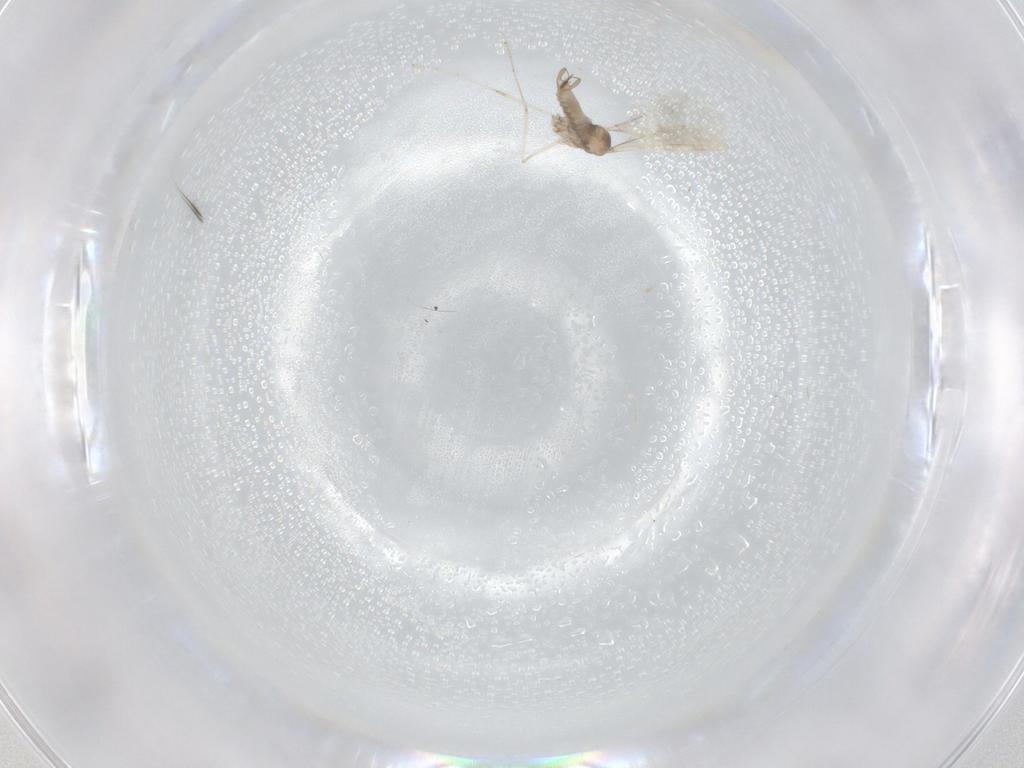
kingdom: Animalia
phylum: Arthropoda
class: Insecta
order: Diptera
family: Cecidomyiidae
